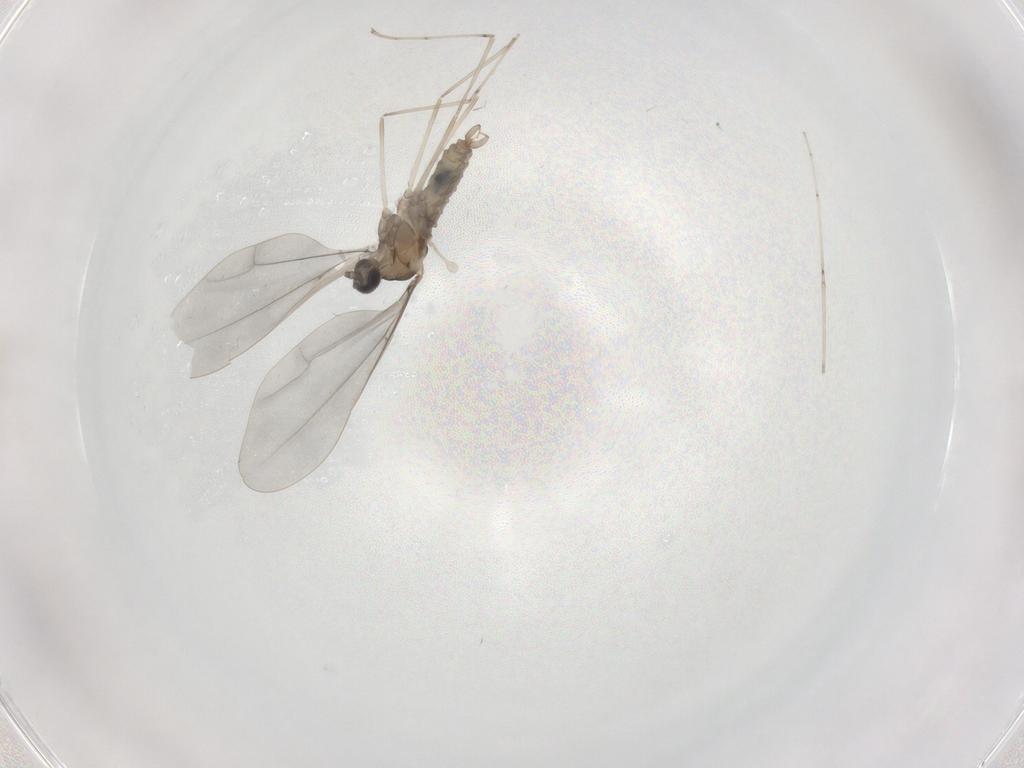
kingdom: Animalia
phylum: Arthropoda
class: Insecta
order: Diptera
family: Cecidomyiidae
